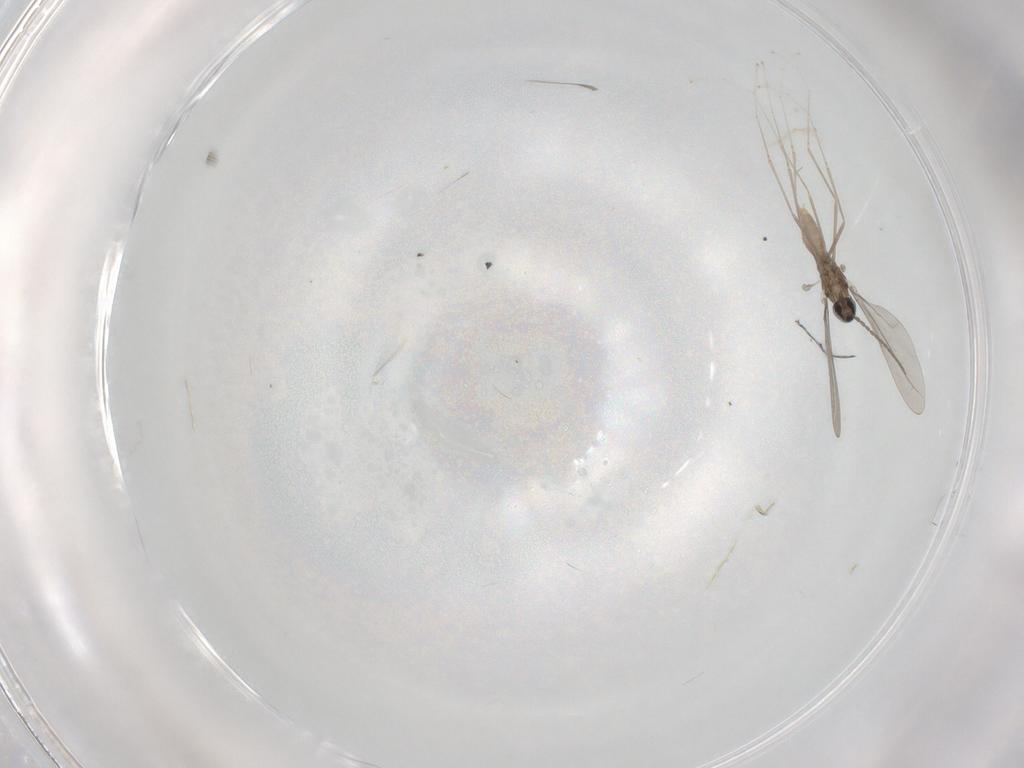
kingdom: Animalia
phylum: Arthropoda
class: Insecta
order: Diptera
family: Cecidomyiidae
